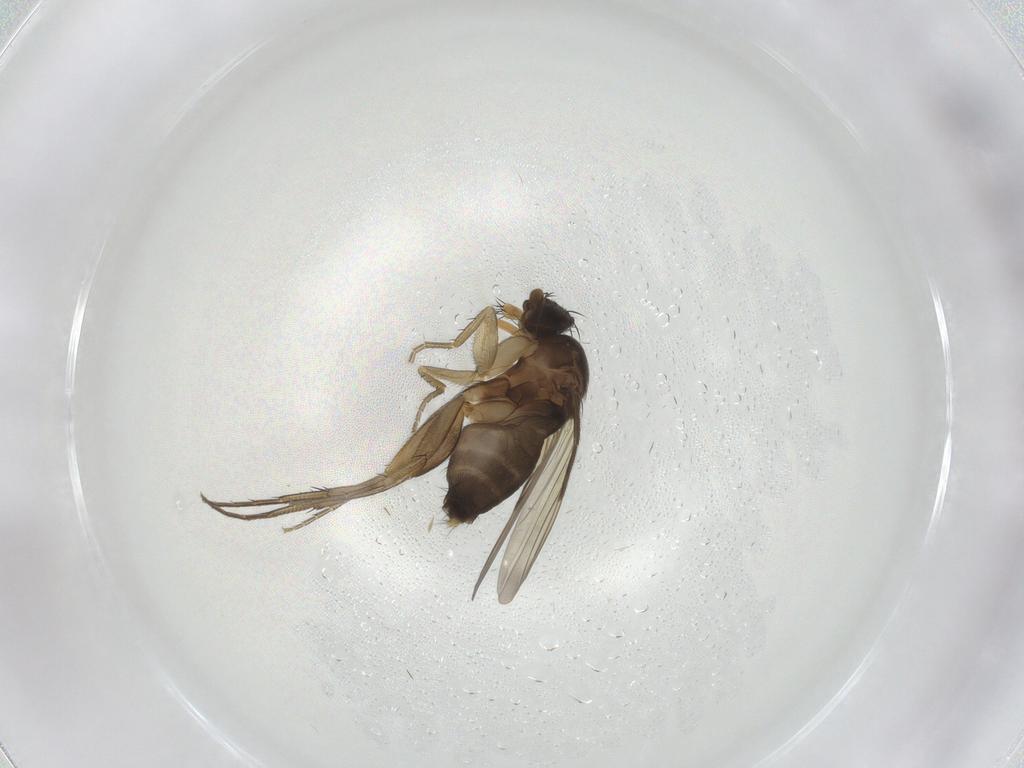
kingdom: Animalia
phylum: Arthropoda
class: Insecta
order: Diptera
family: Phoridae
